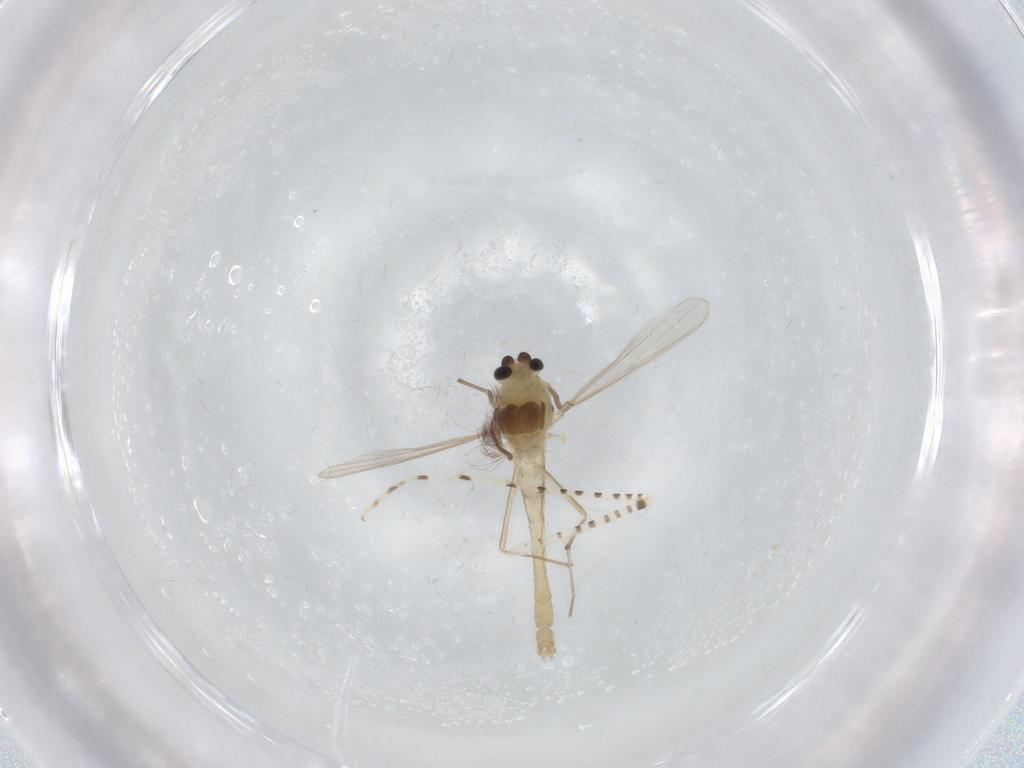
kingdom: Animalia
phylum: Arthropoda
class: Insecta
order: Diptera
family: Chironomidae
